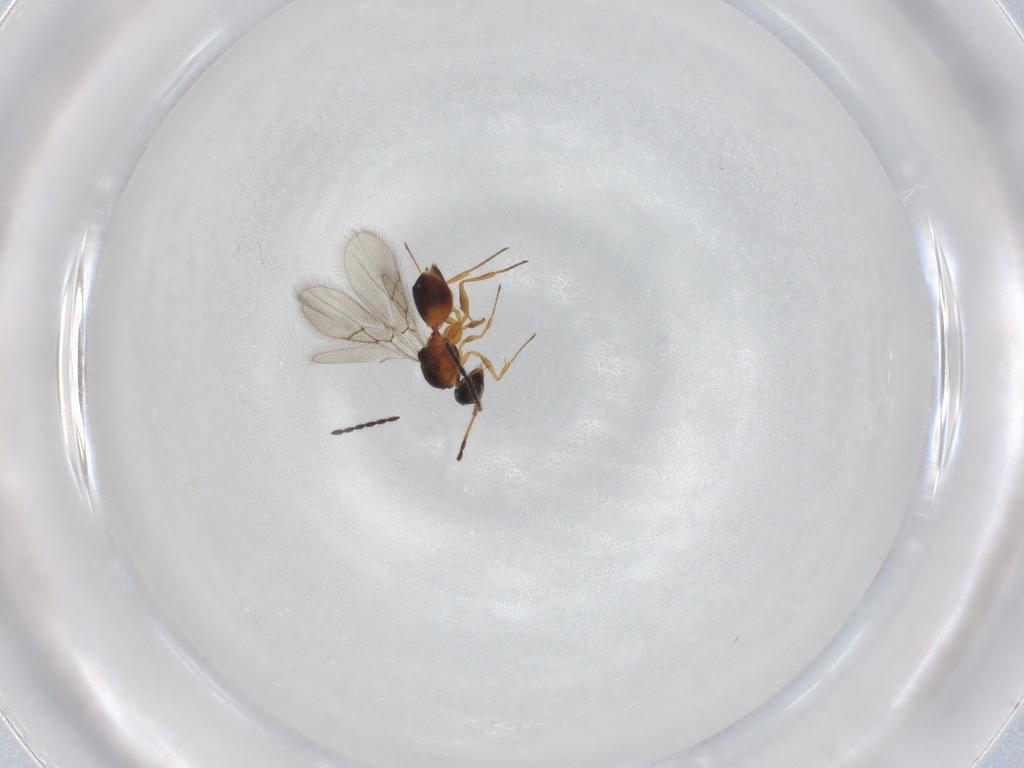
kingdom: Animalia
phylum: Arthropoda
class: Insecta
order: Hymenoptera
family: Figitidae
